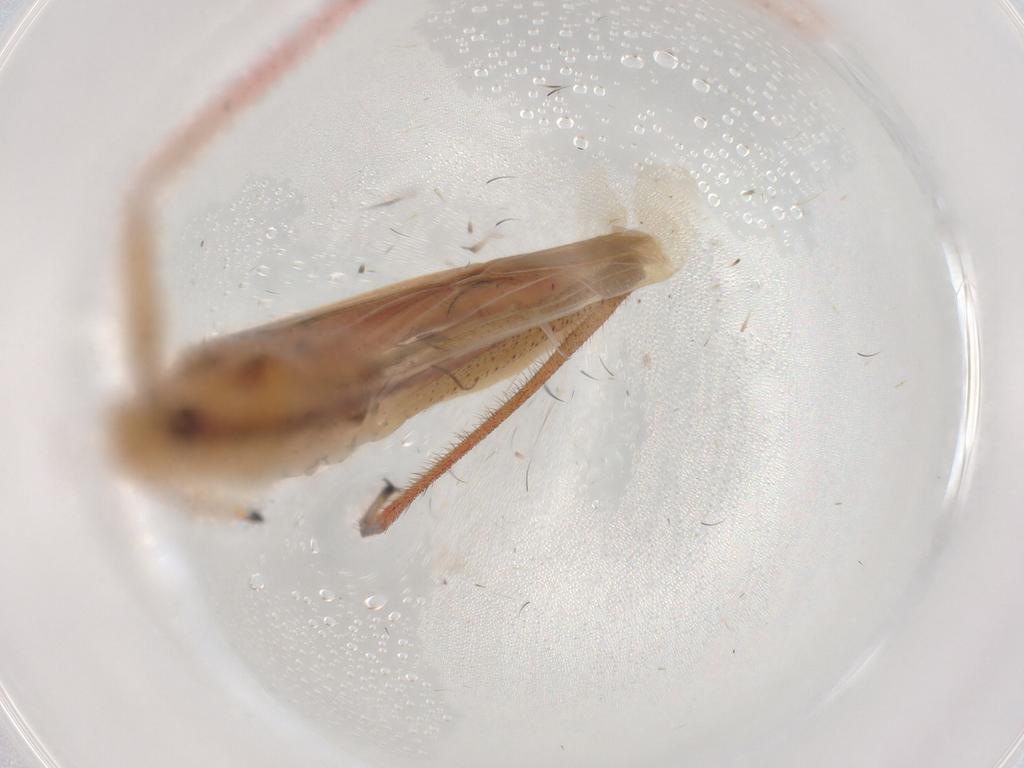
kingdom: Animalia
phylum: Arthropoda
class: Insecta
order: Hemiptera
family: Miridae
